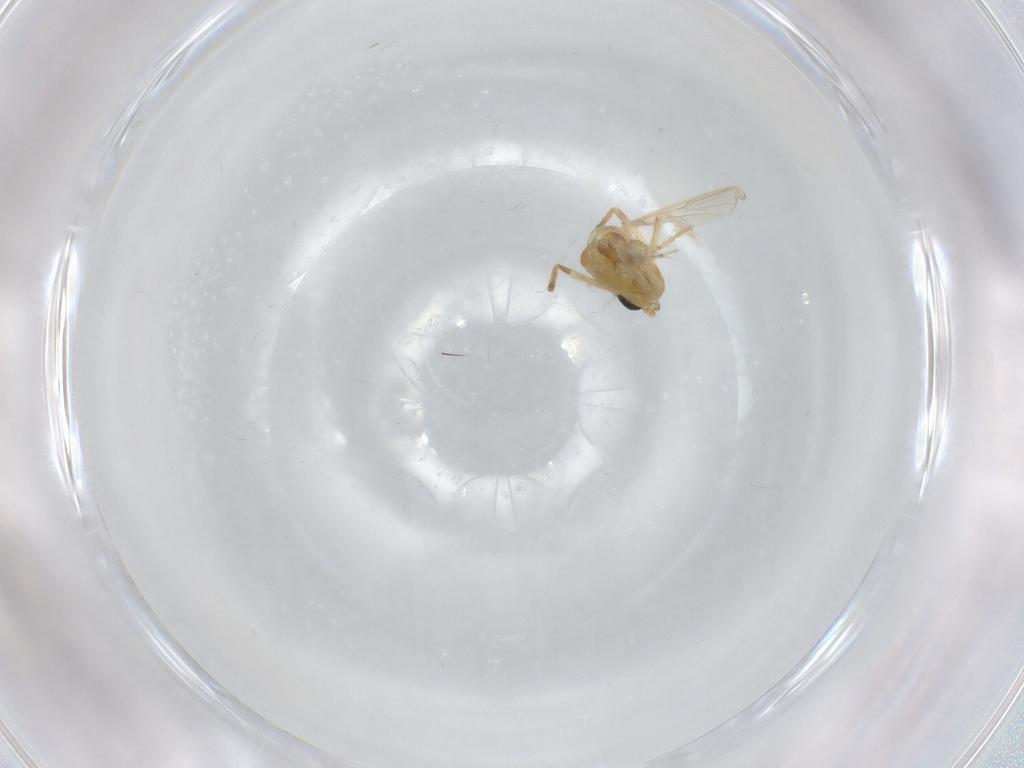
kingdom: Animalia
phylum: Arthropoda
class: Insecta
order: Diptera
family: Chironomidae
